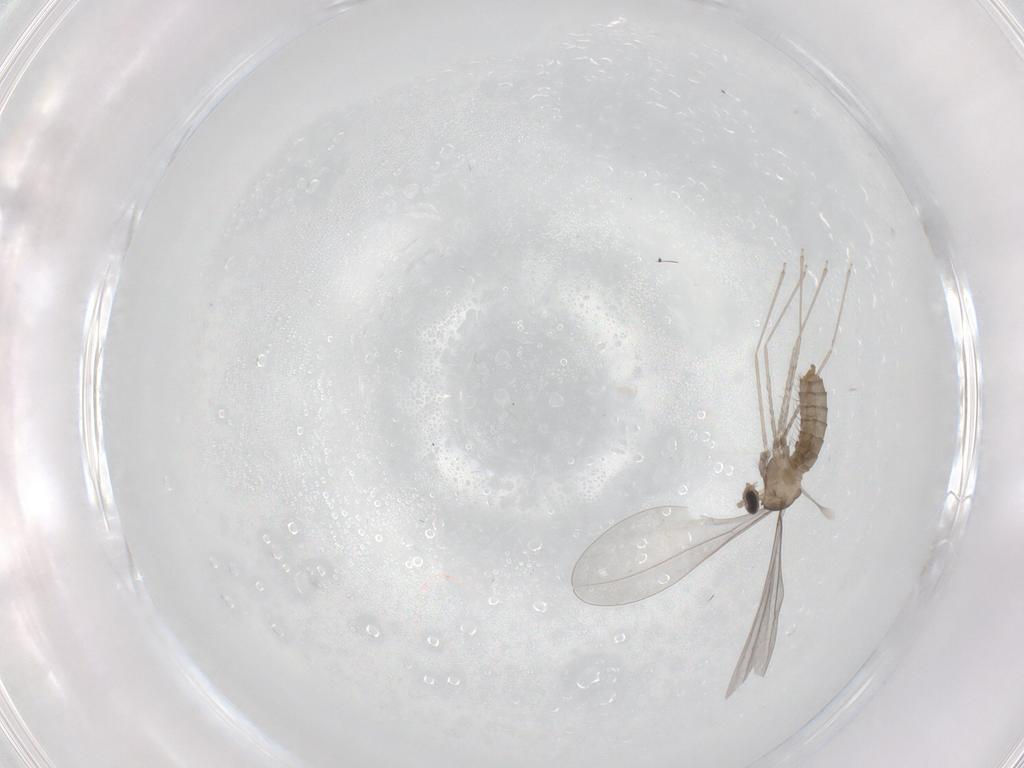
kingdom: Animalia
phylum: Arthropoda
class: Insecta
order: Diptera
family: Cecidomyiidae
